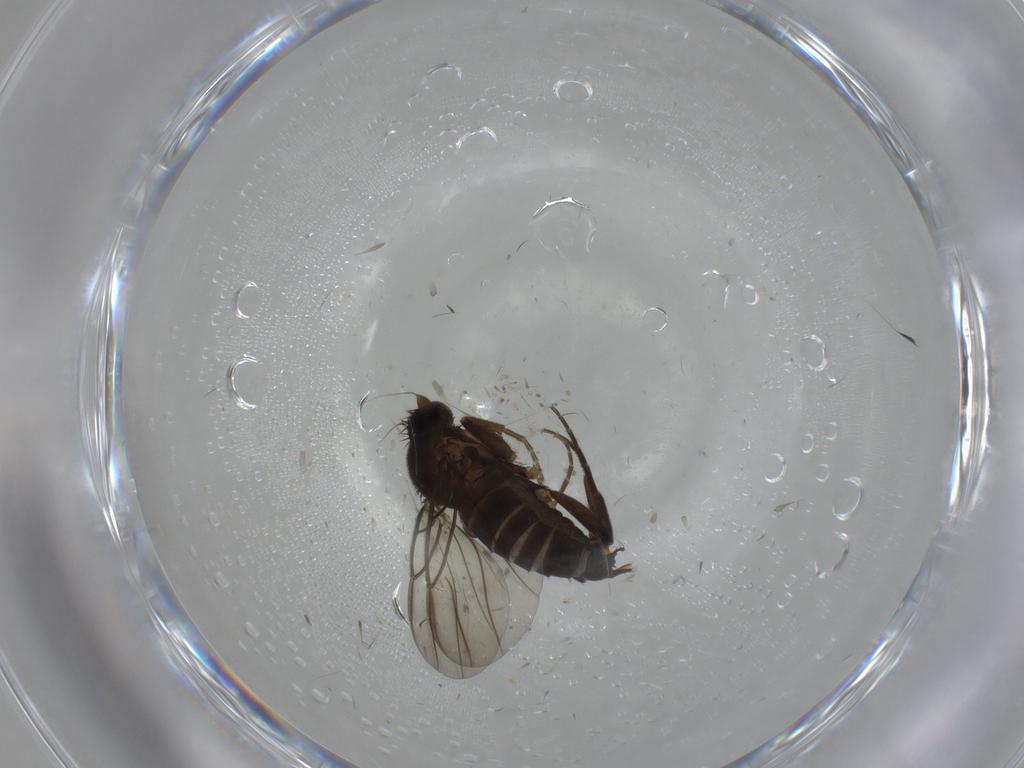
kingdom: Animalia
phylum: Arthropoda
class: Insecta
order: Diptera
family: Phoridae
